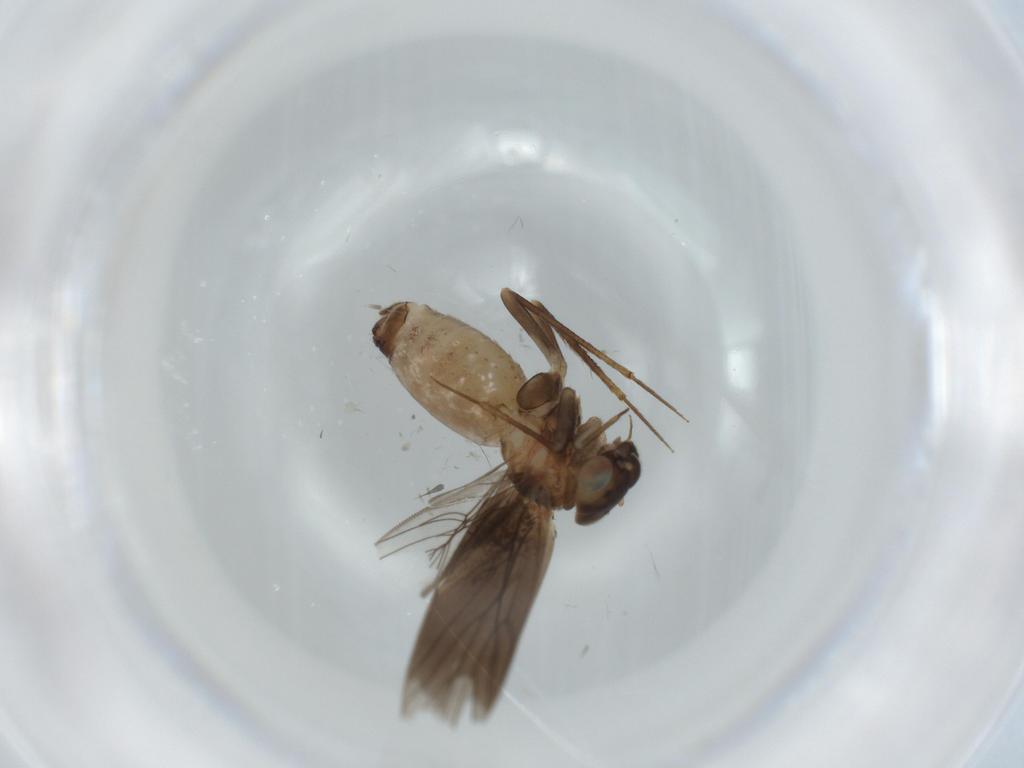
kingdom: Animalia
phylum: Arthropoda
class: Insecta
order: Psocodea
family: Lepidopsocidae
